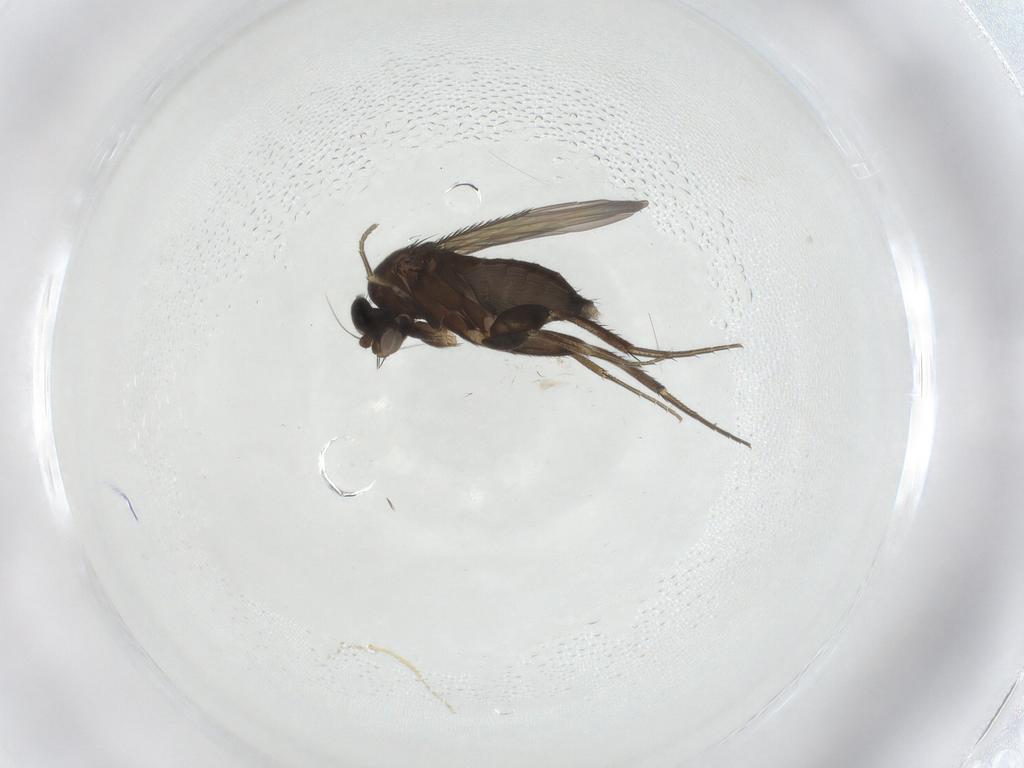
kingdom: Animalia
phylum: Arthropoda
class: Insecta
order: Diptera
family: Phoridae
